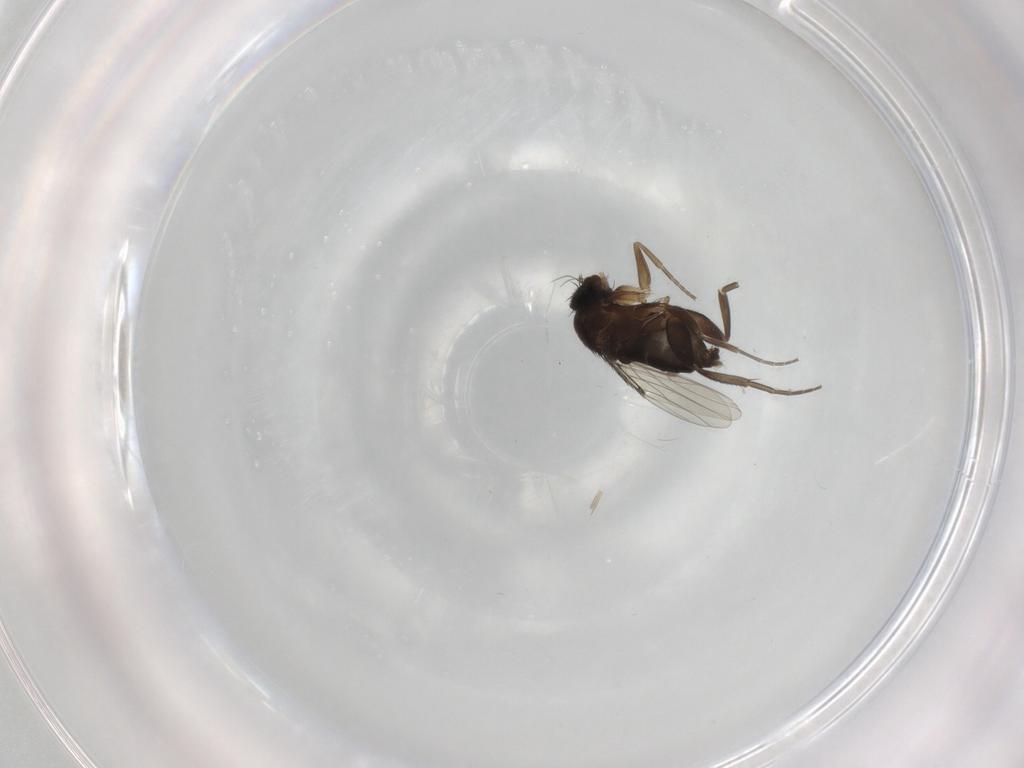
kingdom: Animalia
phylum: Arthropoda
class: Insecta
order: Diptera
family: Phoridae
